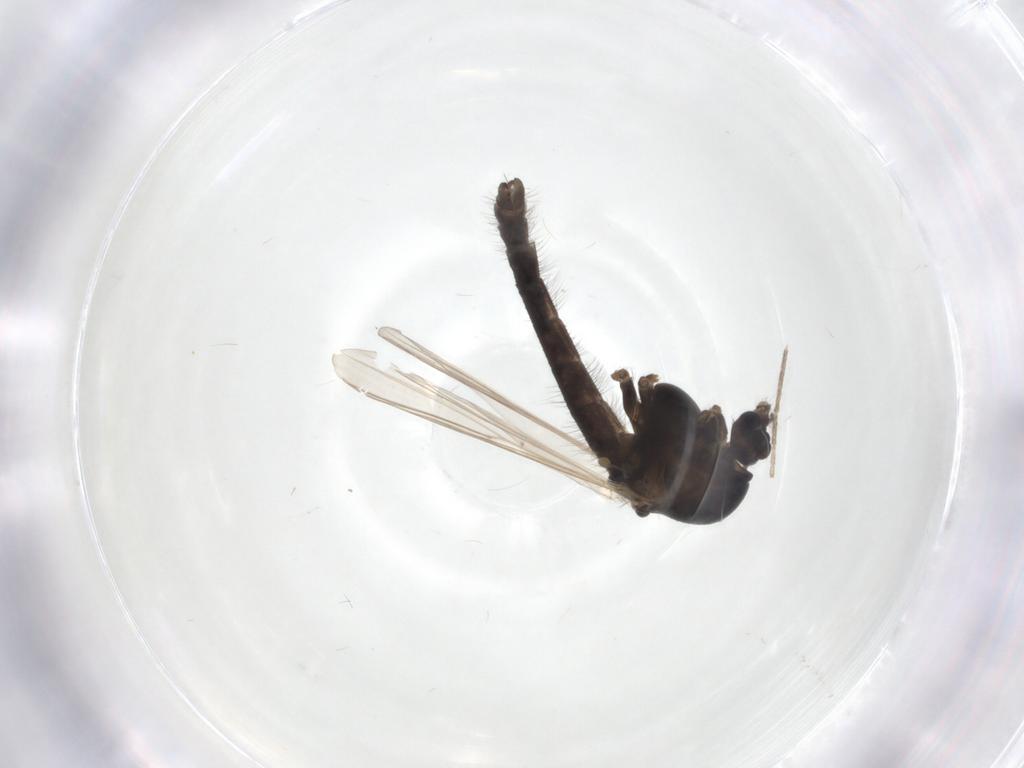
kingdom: Animalia
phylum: Arthropoda
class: Insecta
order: Diptera
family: Chironomidae
